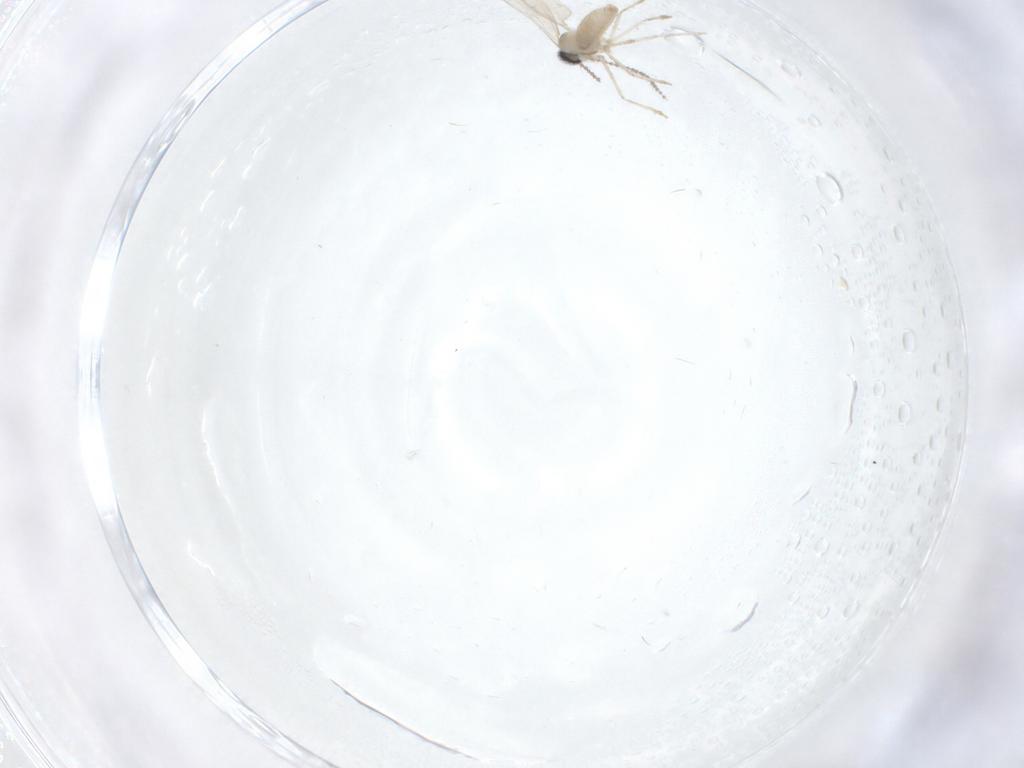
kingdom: Animalia
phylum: Arthropoda
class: Insecta
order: Diptera
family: Cecidomyiidae
